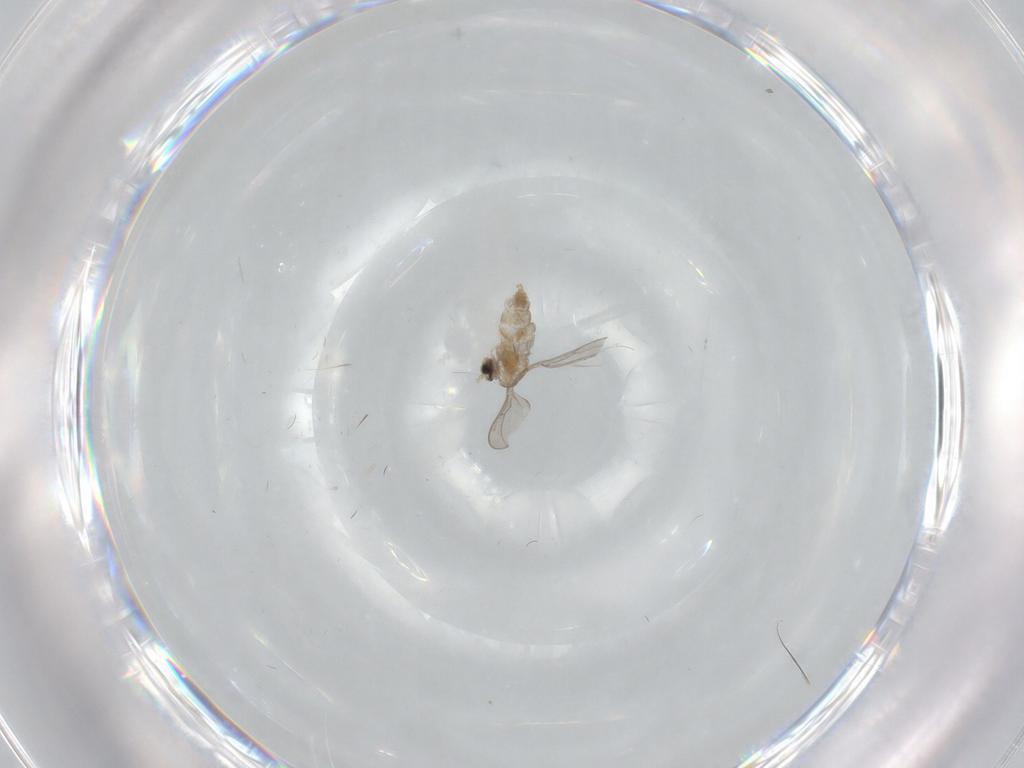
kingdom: Animalia
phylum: Arthropoda
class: Insecta
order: Diptera
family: Cecidomyiidae
